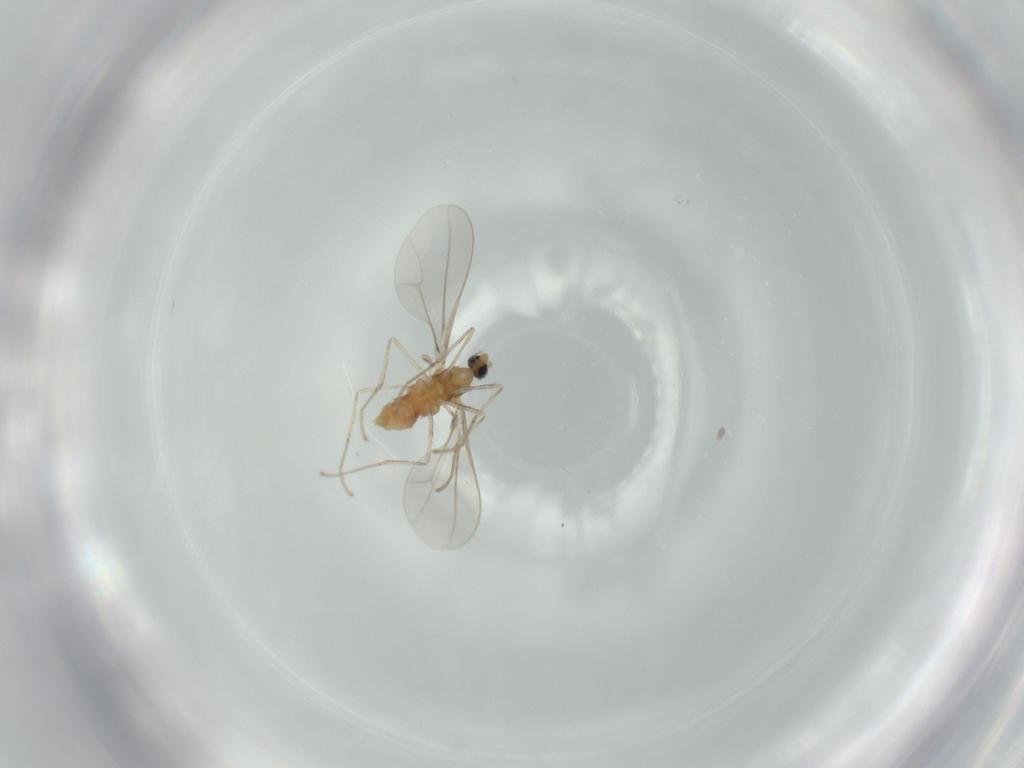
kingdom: Animalia
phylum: Arthropoda
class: Insecta
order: Diptera
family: Cecidomyiidae
